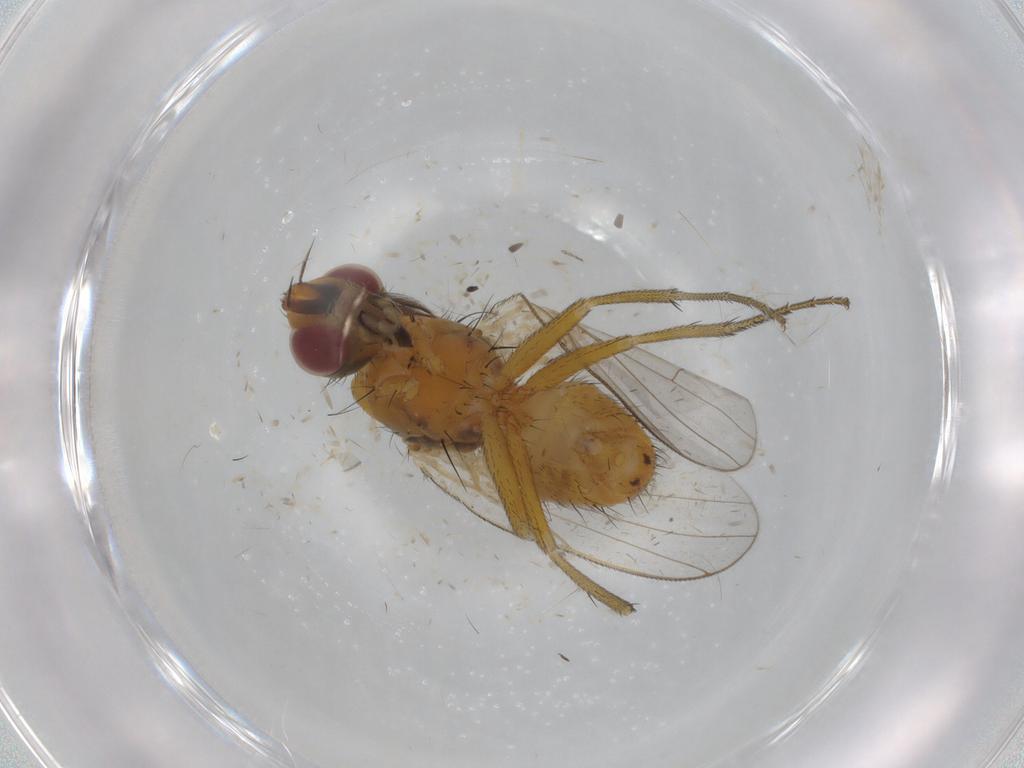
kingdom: Animalia
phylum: Arthropoda
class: Insecta
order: Diptera
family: Muscidae
